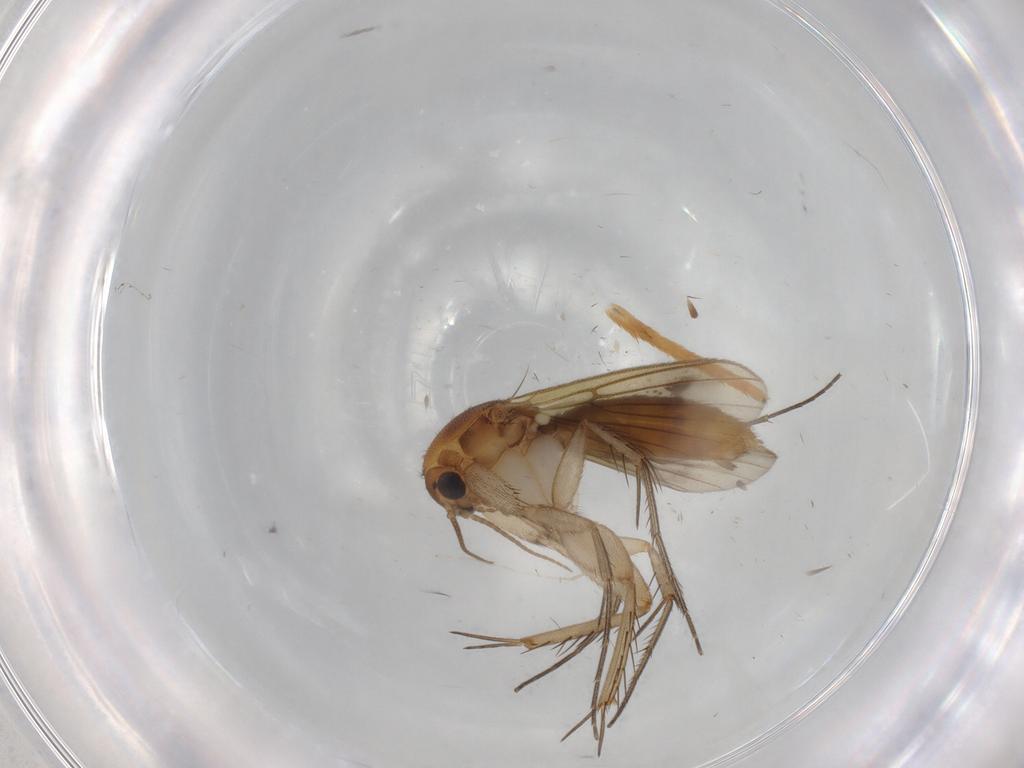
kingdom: Animalia
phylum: Arthropoda
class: Insecta
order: Diptera
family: Mycetophilidae
